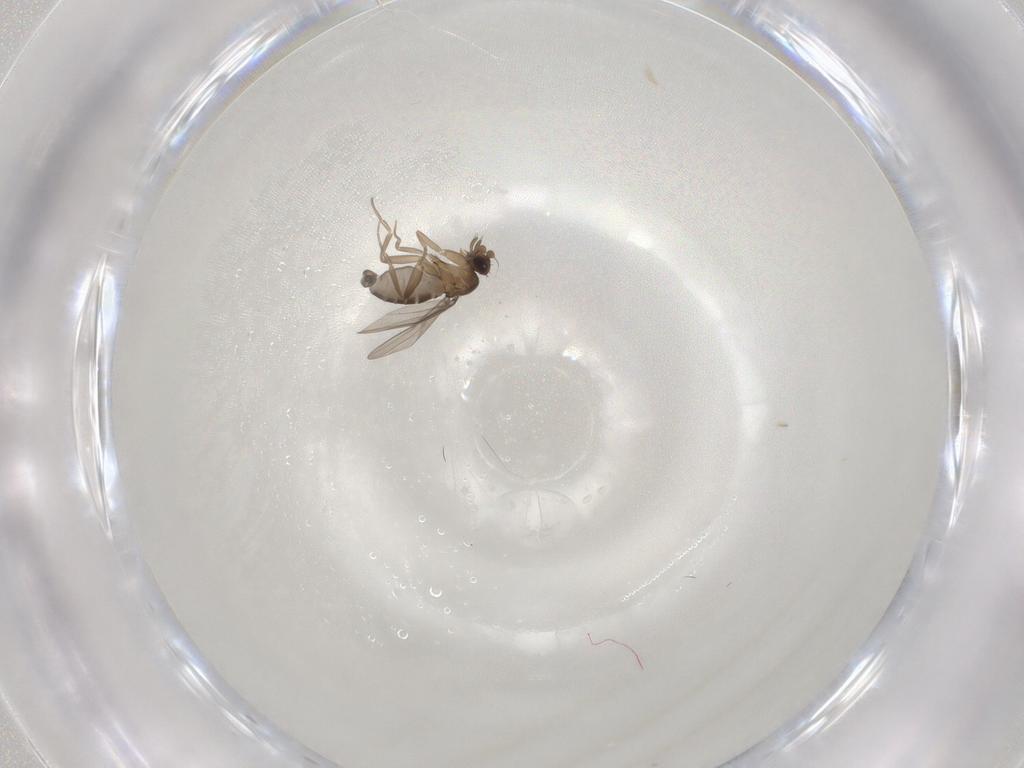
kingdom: Animalia
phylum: Arthropoda
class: Insecta
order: Diptera
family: Phoridae
